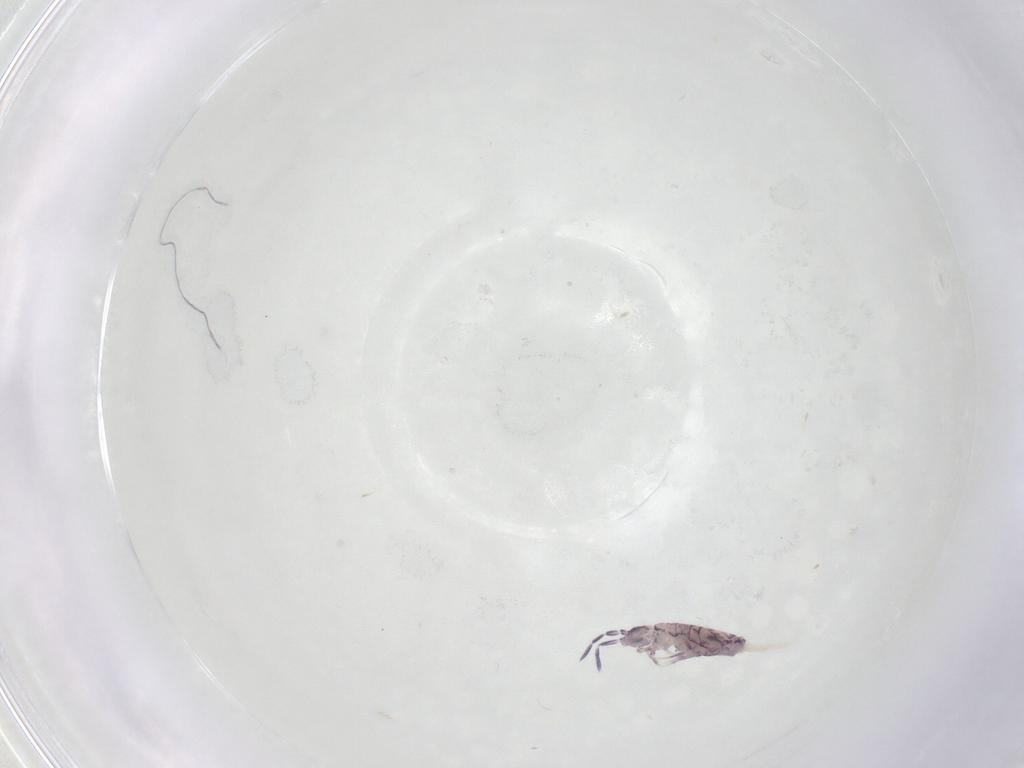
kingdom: Animalia
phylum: Arthropoda
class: Collembola
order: Entomobryomorpha
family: Entomobryidae
